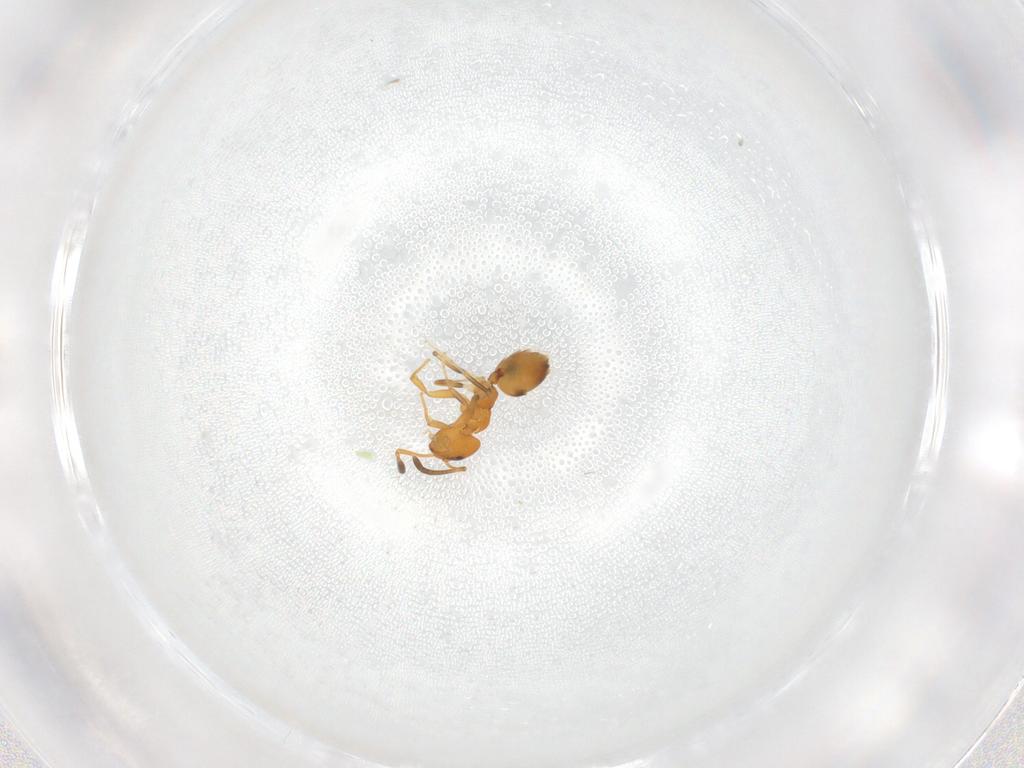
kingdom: Animalia
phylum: Arthropoda
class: Insecta
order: Hymenoptera
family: Formicidae
